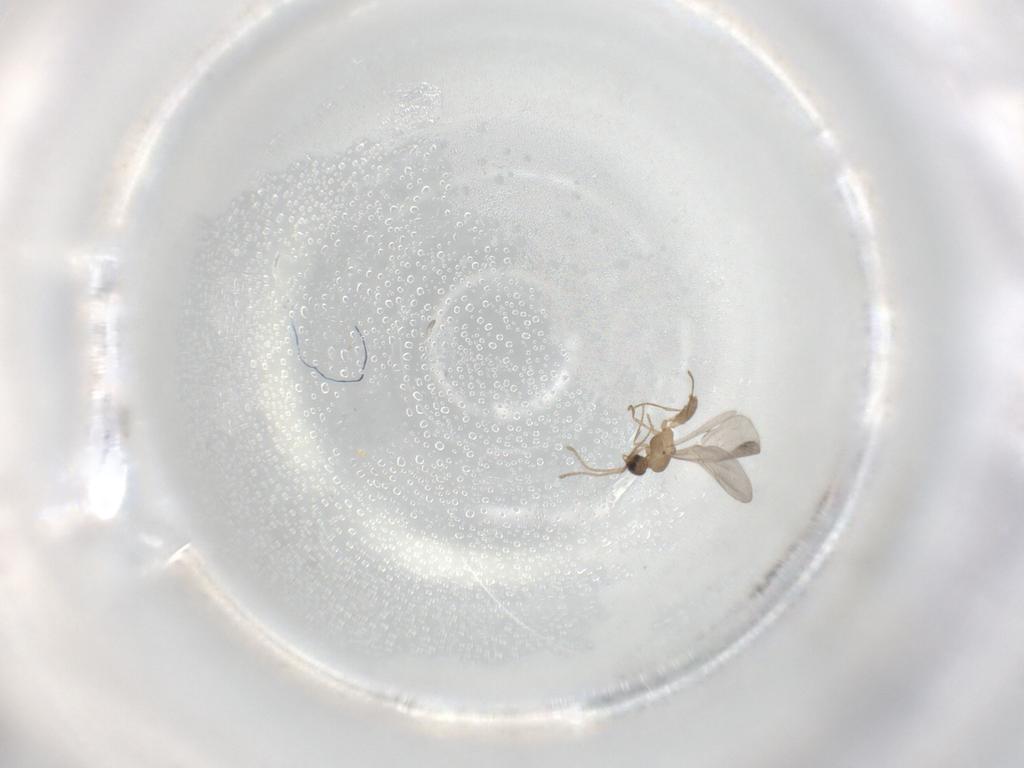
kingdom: Animalia
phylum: Arthropoda
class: Insecta
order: Hymenoptera
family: Formicidae
